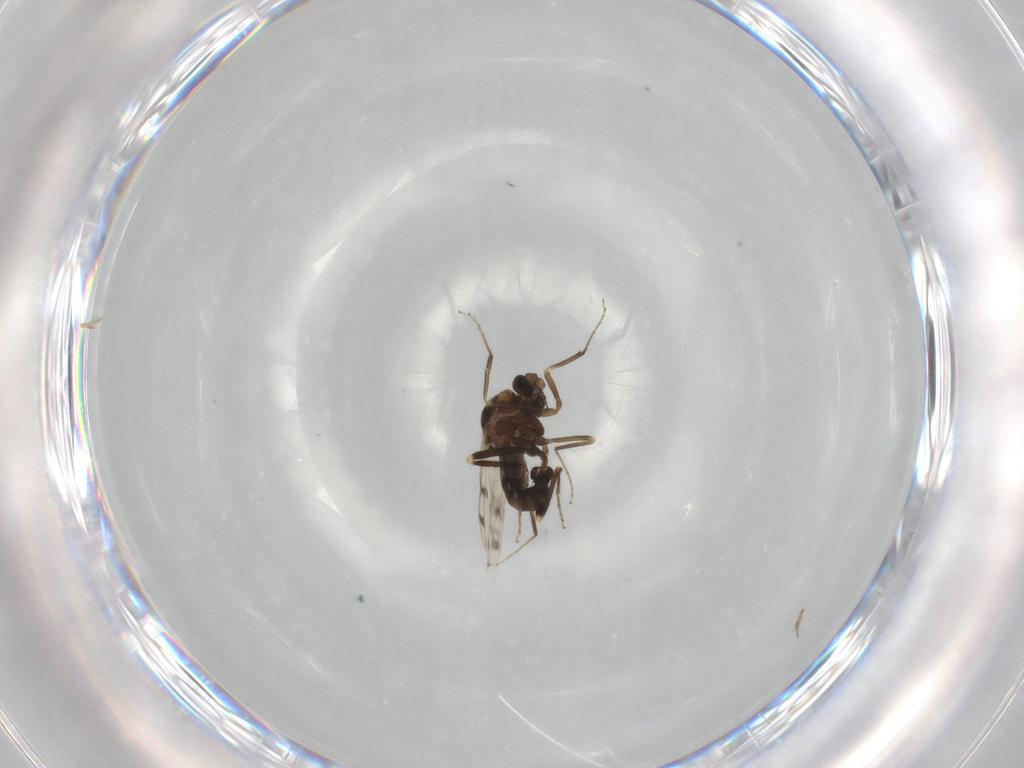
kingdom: Animalia
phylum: Arthropoda
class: Insecta
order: Diptera
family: Ceratopogonidae
